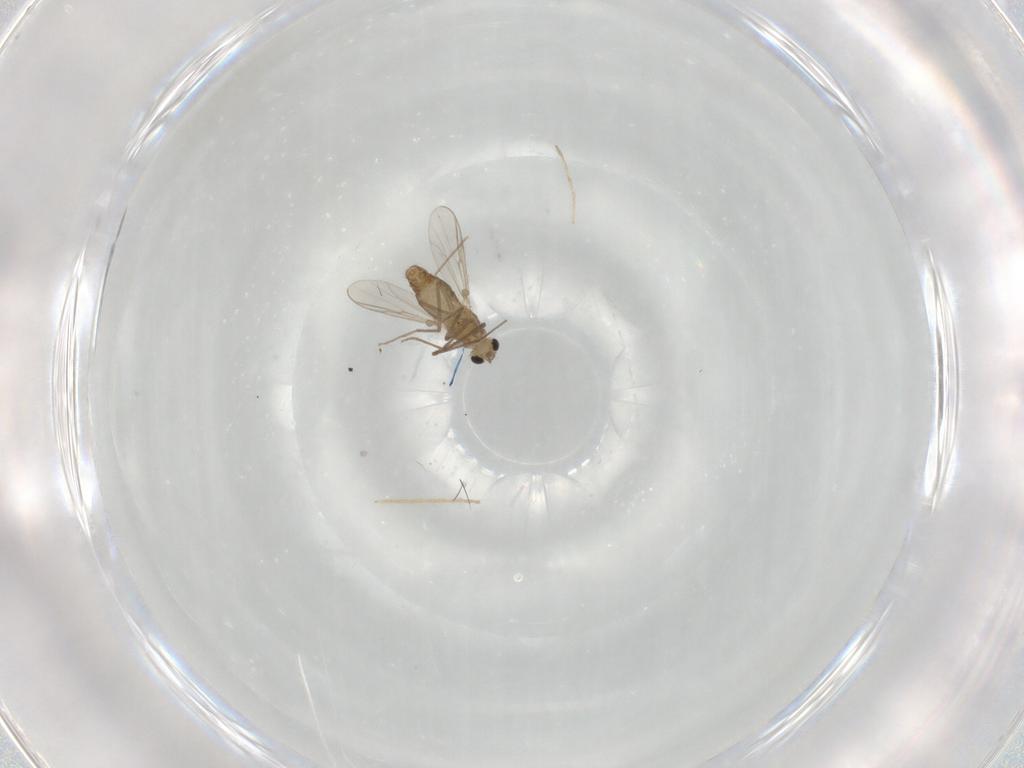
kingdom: Animalia
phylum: Arthropoda
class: Insecta
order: Diptera
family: Chironomidae
